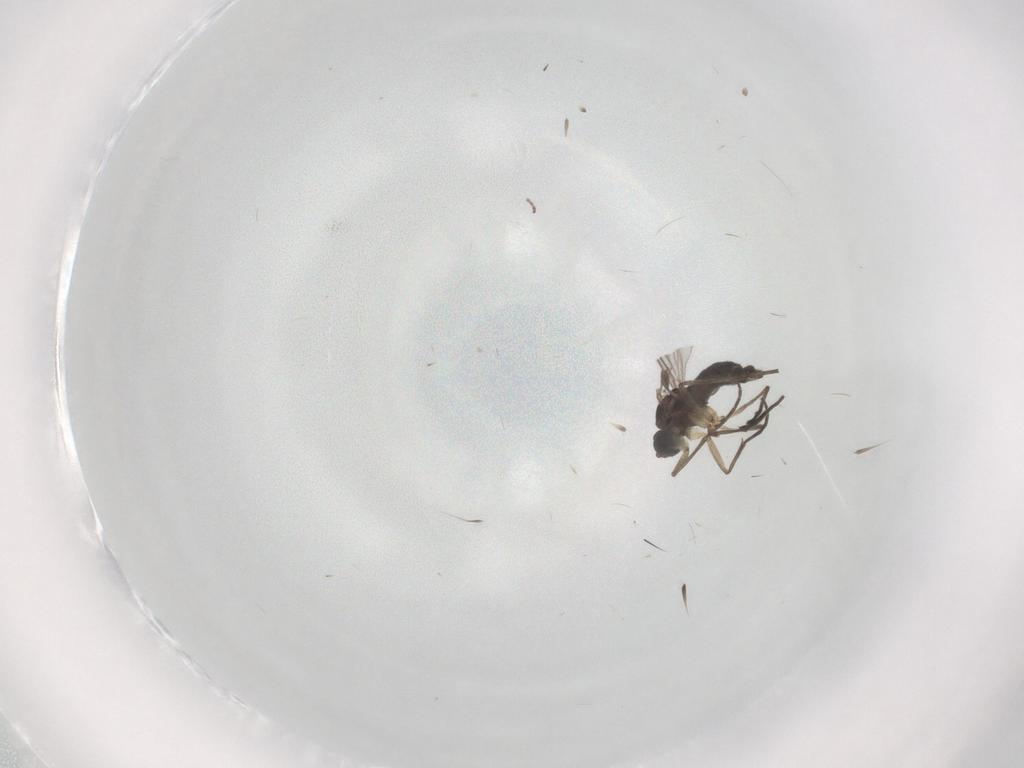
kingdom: Animalia
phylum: Arthropoda
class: Insecta
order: Diptera
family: Sciaridae
